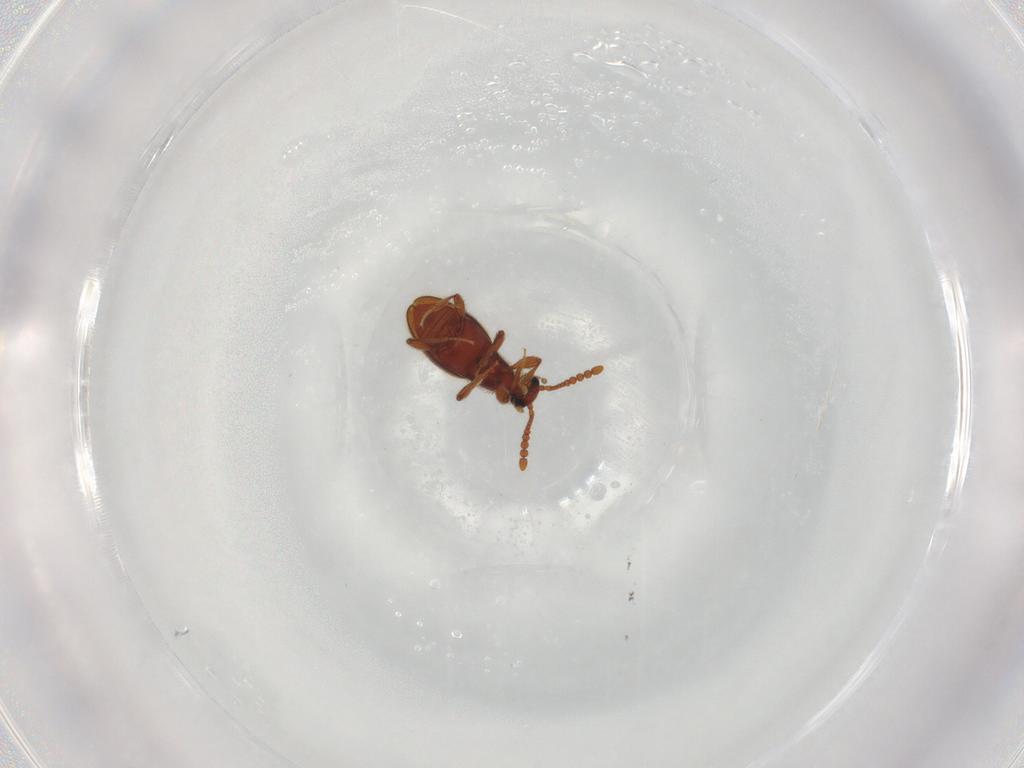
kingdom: Animalia
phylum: Arthropoda
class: Insecta
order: Coleoptera
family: Staphylinidae
